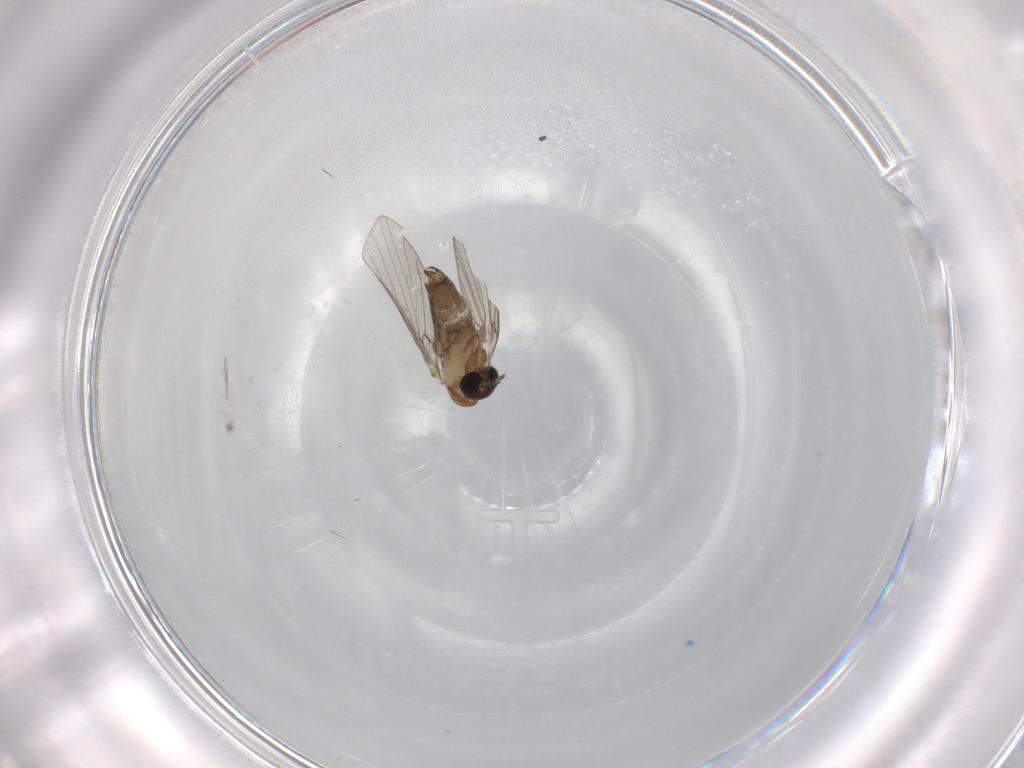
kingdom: Animalia
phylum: Arthropoda
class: Insecta
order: Diptera
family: Psychodidae
